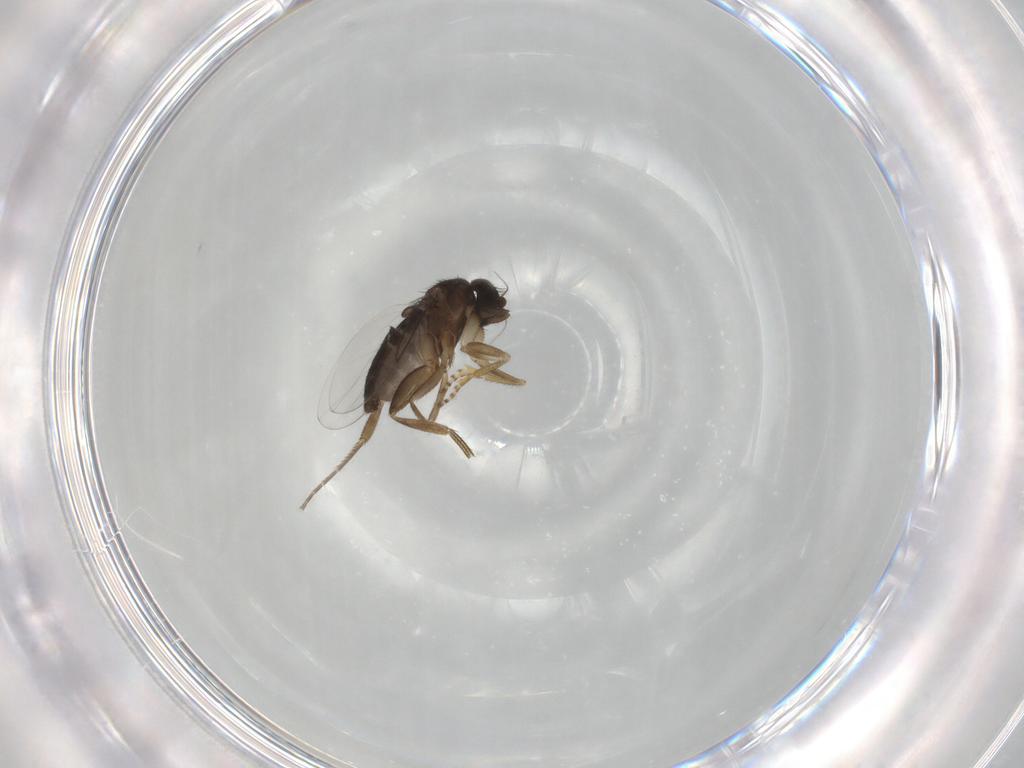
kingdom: Animalia
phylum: Arthropoda
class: Insecta
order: Diptera
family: Phoridae
